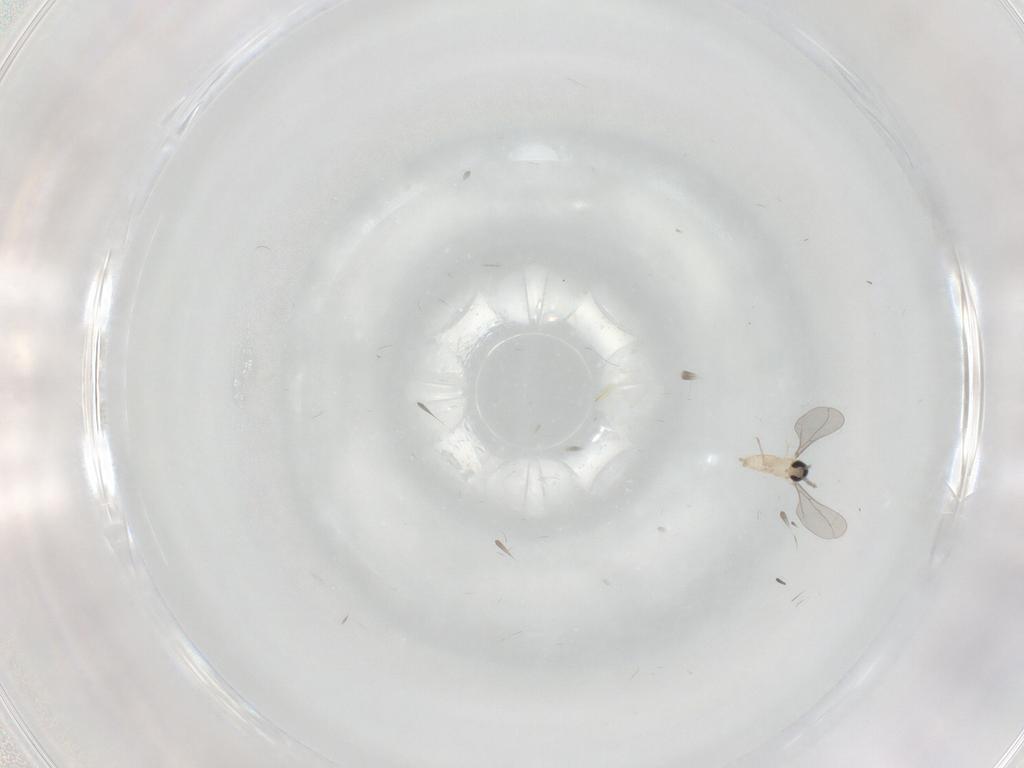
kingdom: Animalia
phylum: Arthropoda
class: Insecta
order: Diptera
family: Cecidomyiidae
